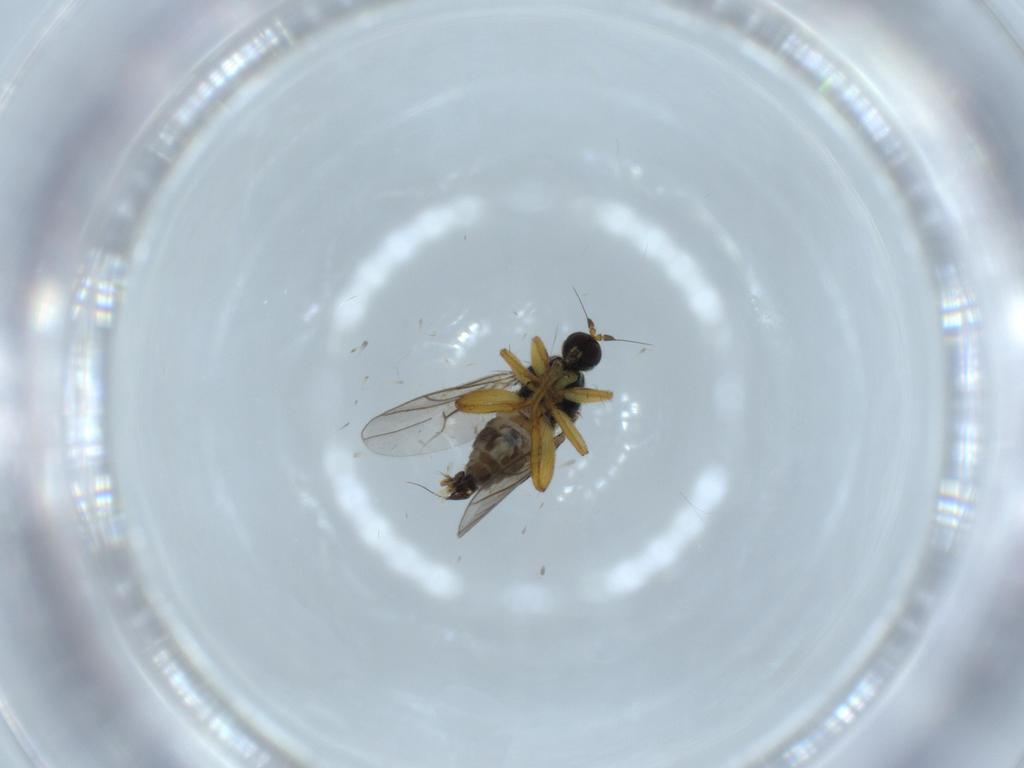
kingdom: Animalia
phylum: Arthropoda
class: Insecta
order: Diptera
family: Hybotidae
